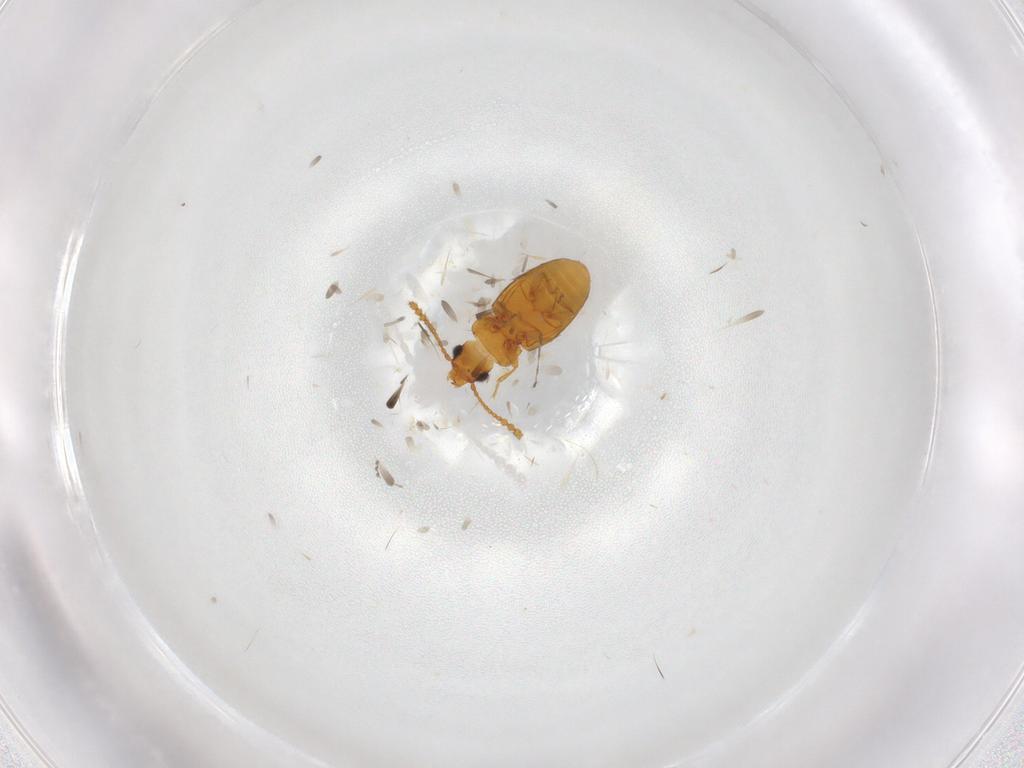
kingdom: Animalia
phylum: Arthropoda
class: Insecta
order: Coleoptera
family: Laemophloeidae
